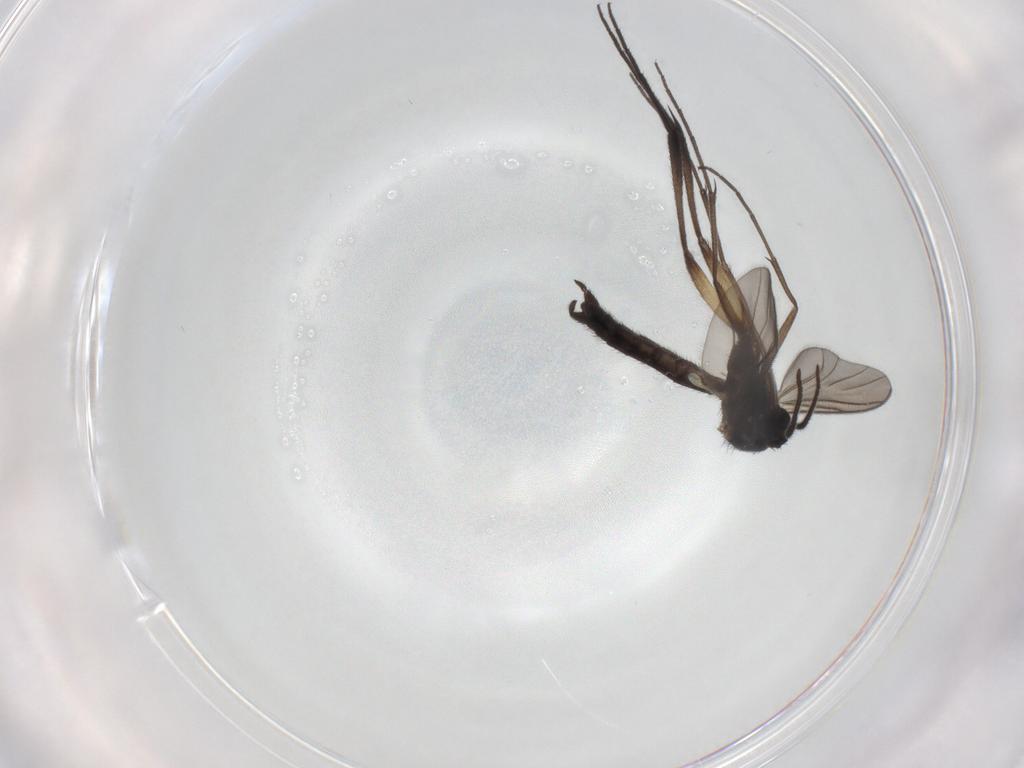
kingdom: Animalia
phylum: Arthropoda
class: Insecta
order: Diptera
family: Keroplatidae
